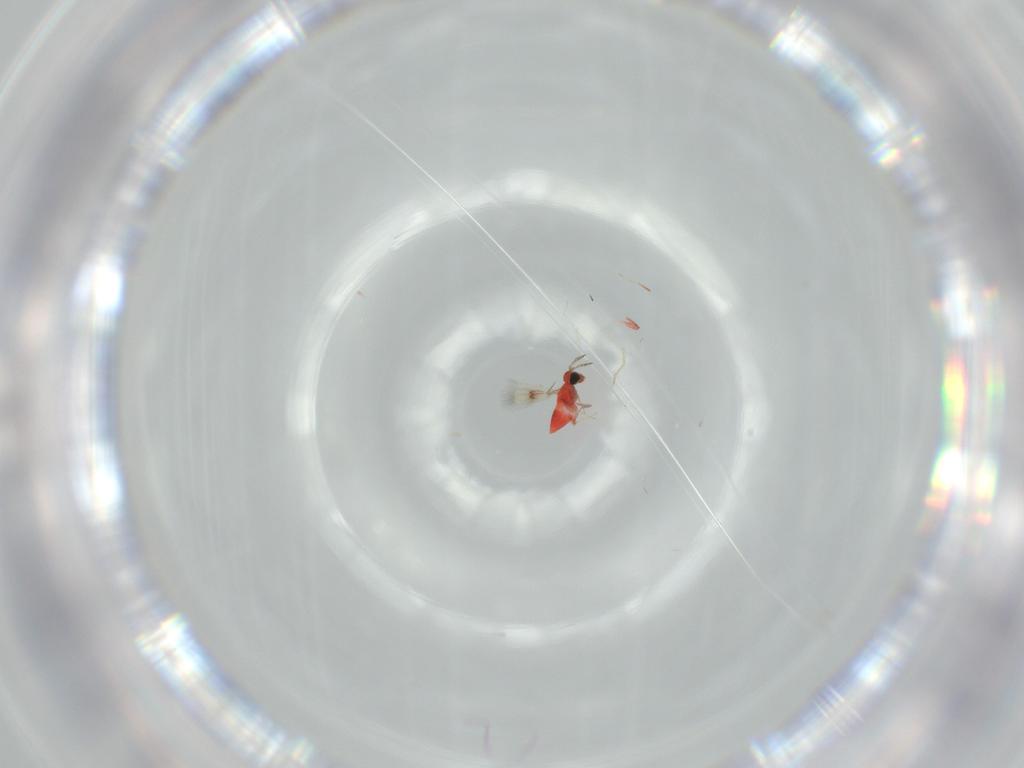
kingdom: Animalia
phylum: Arthropoda
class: Insecta
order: Hymenoptera
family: Trichogrammatidae
